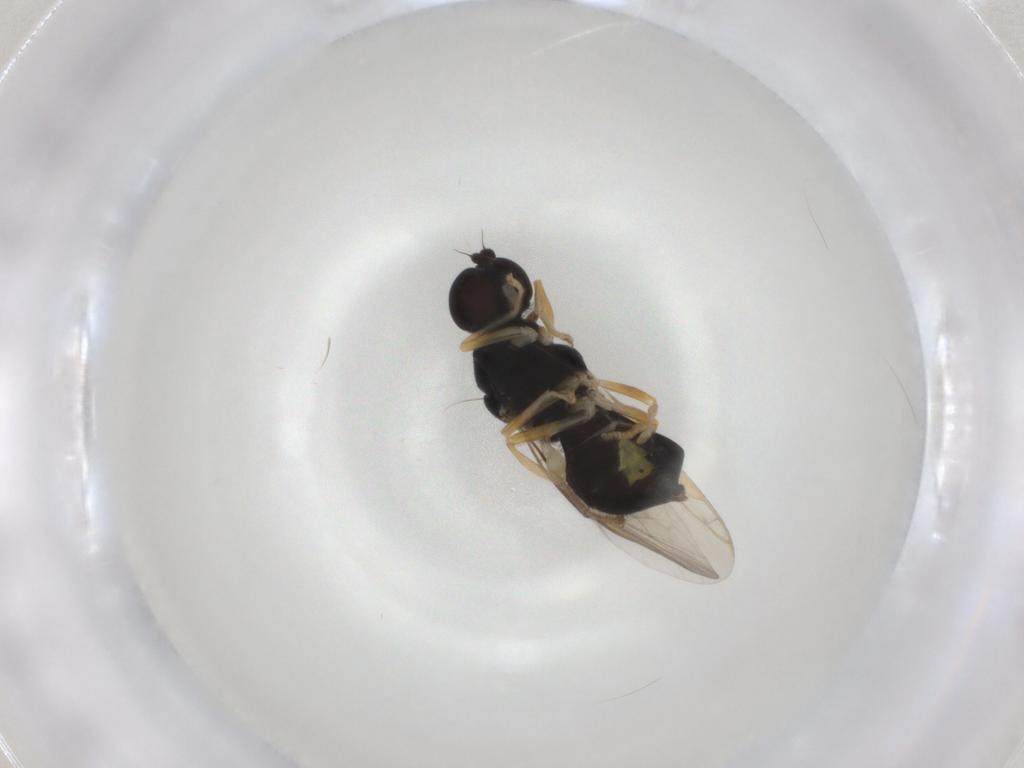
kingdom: Animalia
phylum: Arthropoda
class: Insecta
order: Diptera
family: Stratiomyidae
